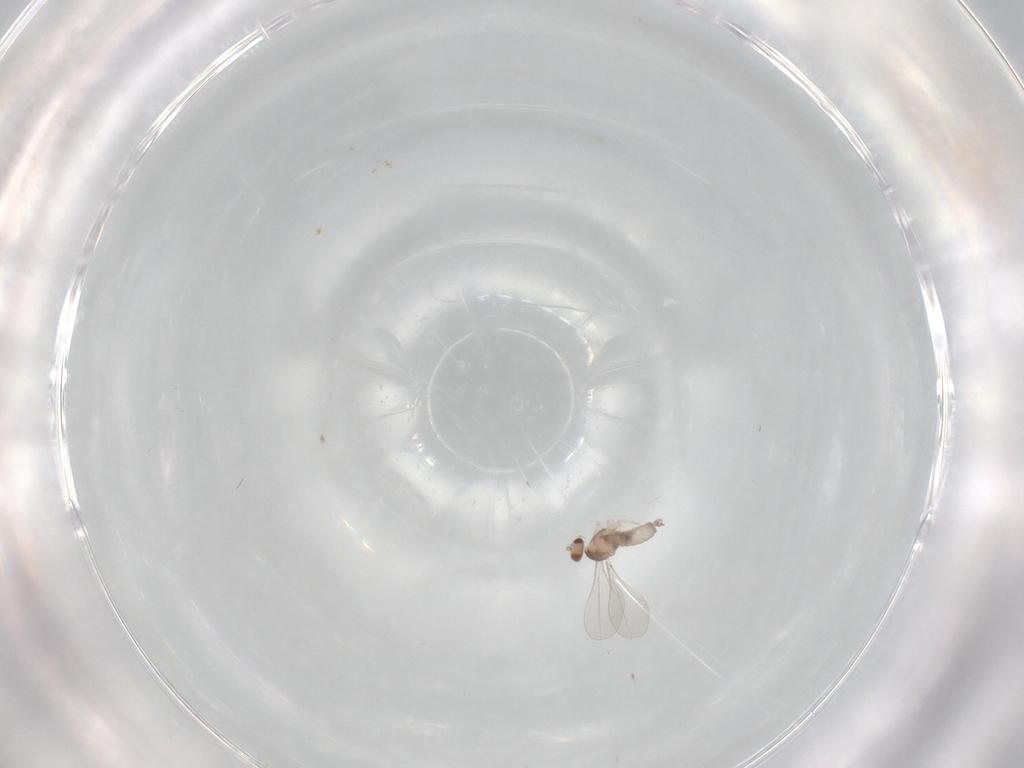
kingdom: Animalia
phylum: Arthropoda
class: Insecta
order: Diptera
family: Cecidomyiidae
